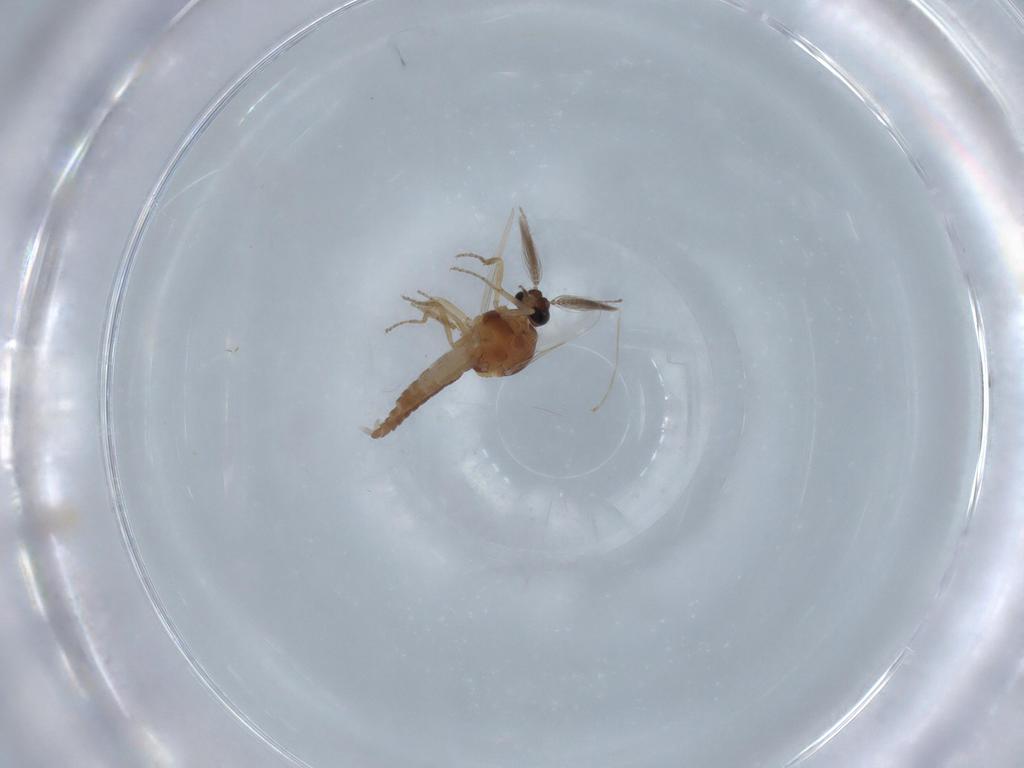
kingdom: Animalia
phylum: Arthropoda
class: Insecta
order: Diptera
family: Ceratopogonidae
